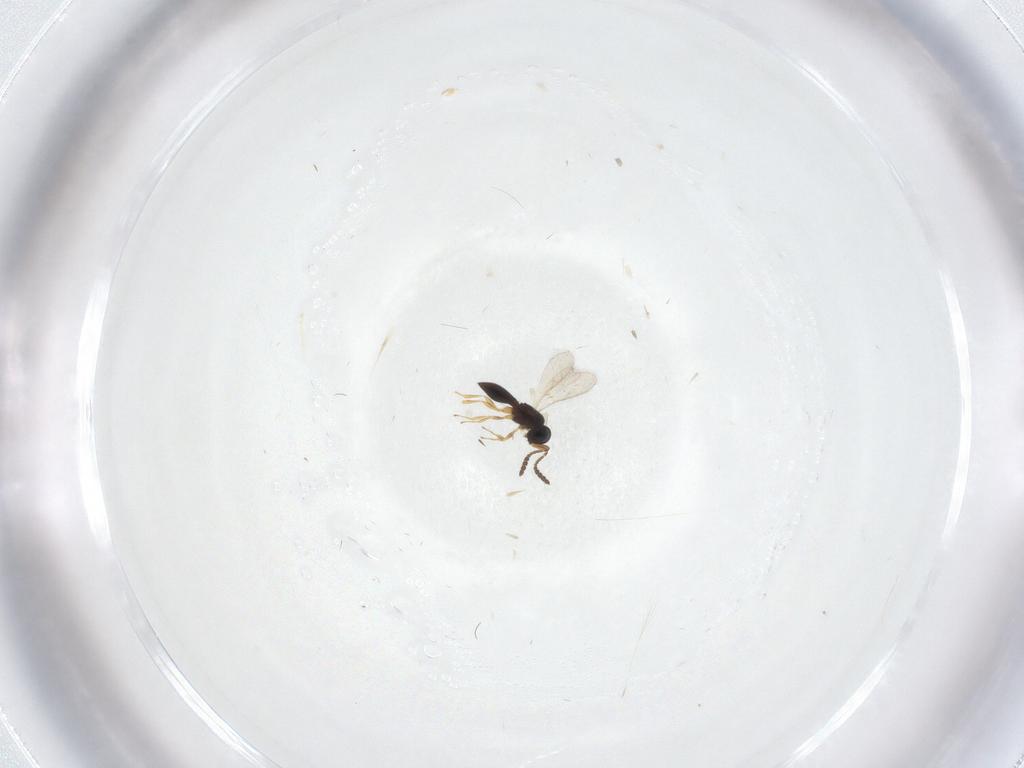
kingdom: Animalia
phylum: Arthropoda
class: Insecta
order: Hymenoptera
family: Scelionidae
